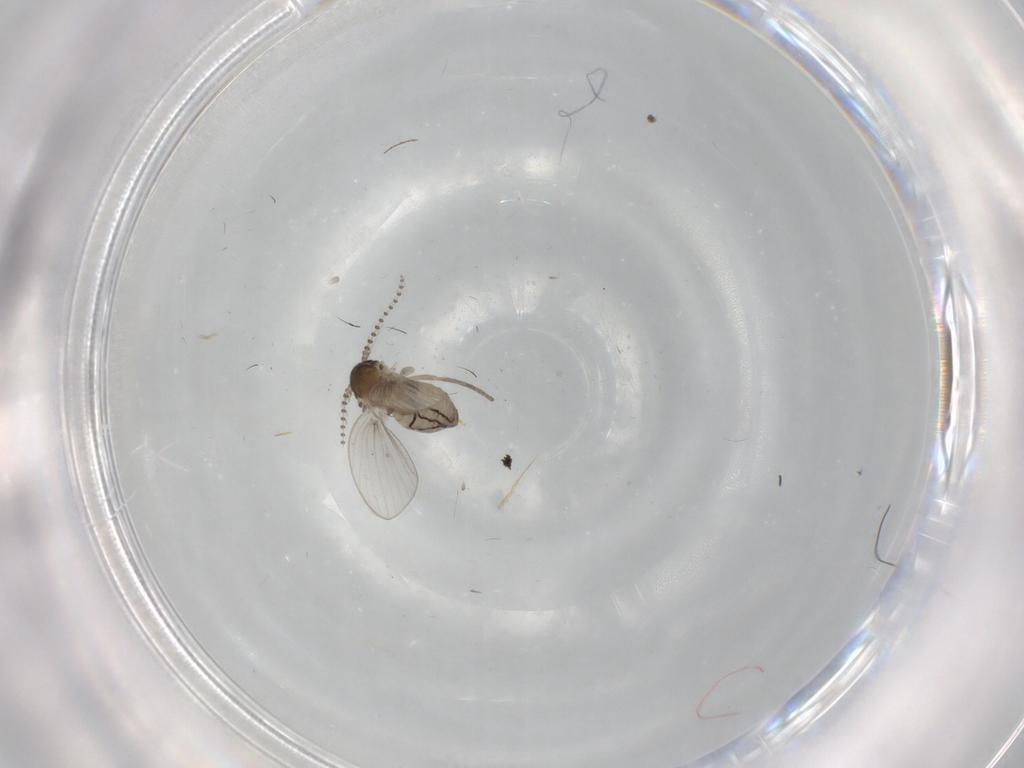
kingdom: Animalia
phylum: Arthropoda
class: Insecta
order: Diptera
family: Psychodidae
